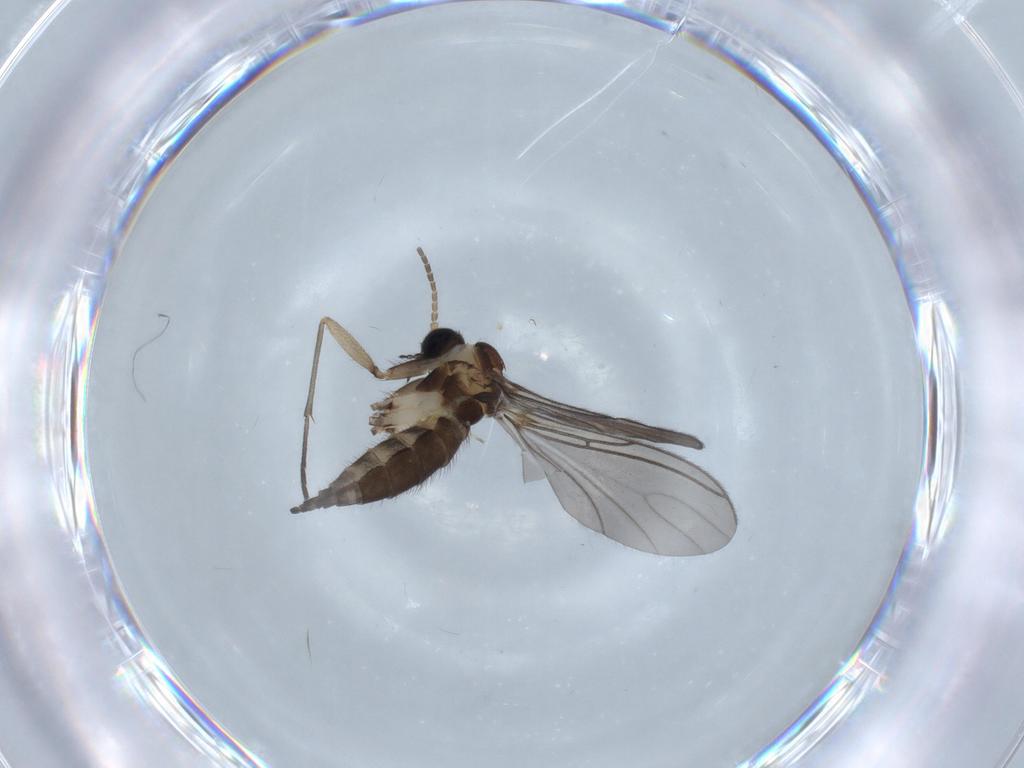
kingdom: Animalia
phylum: Arthropoda
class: Insecta
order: Diptera
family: Sciaridae
